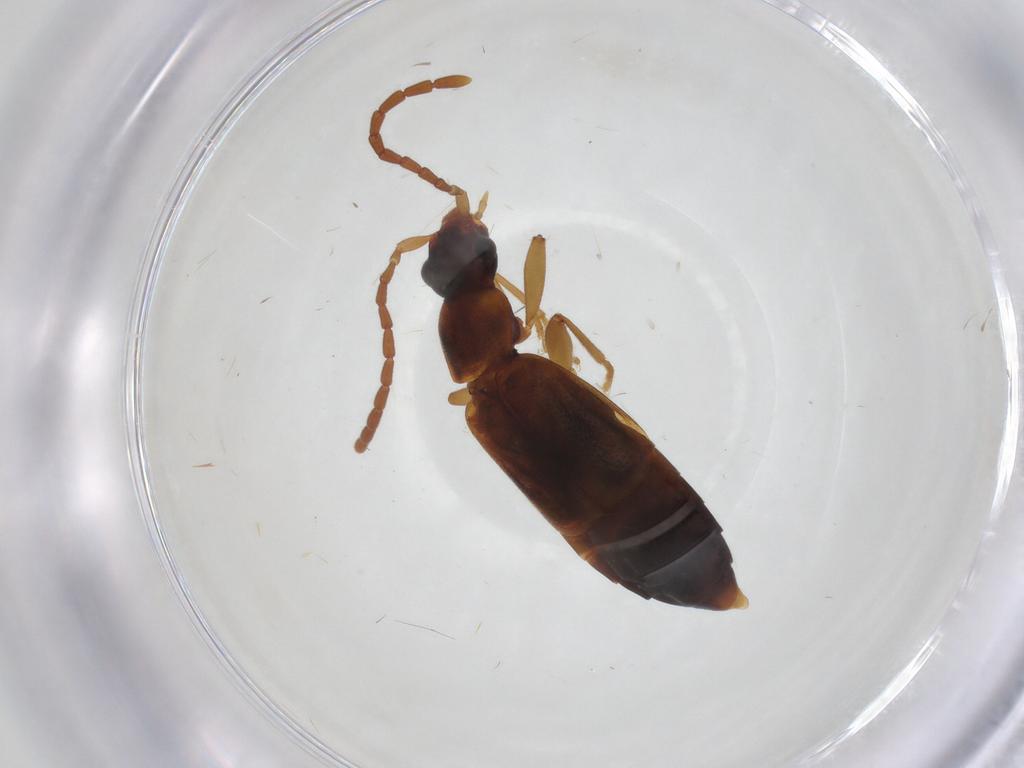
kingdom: Animalia
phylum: Arthropoda
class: Insecta
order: Coleoptera
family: Staphylinidae
